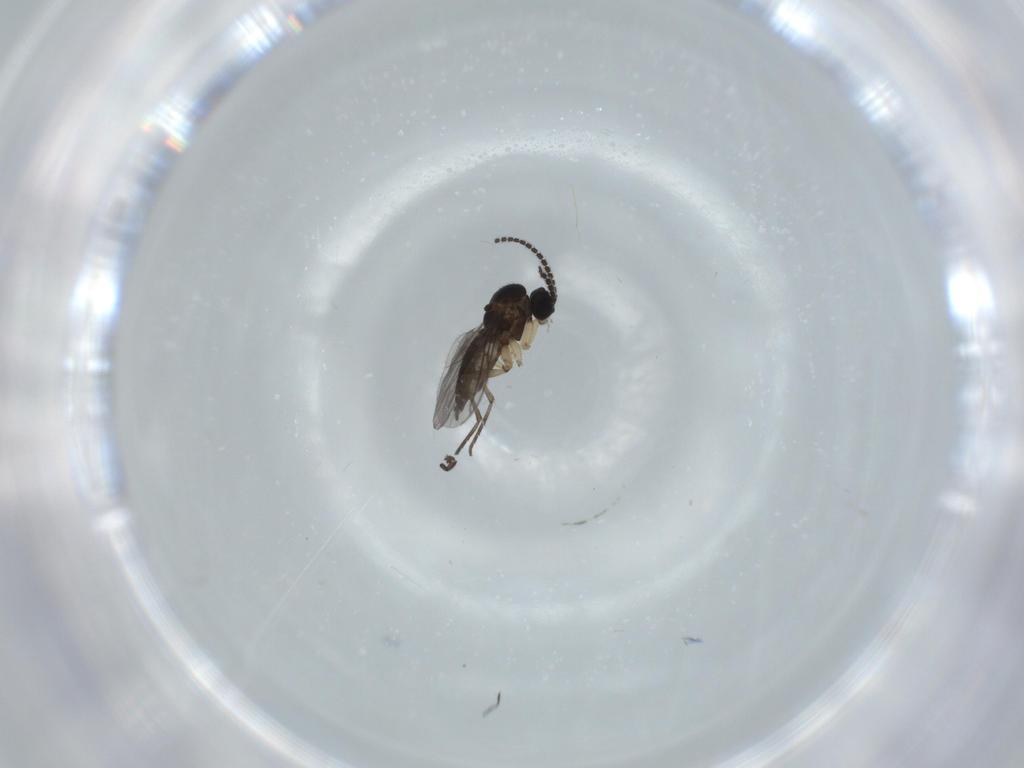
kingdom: Animalia
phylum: Arthropoda
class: Insecta
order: Diptera
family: Sciaridae
